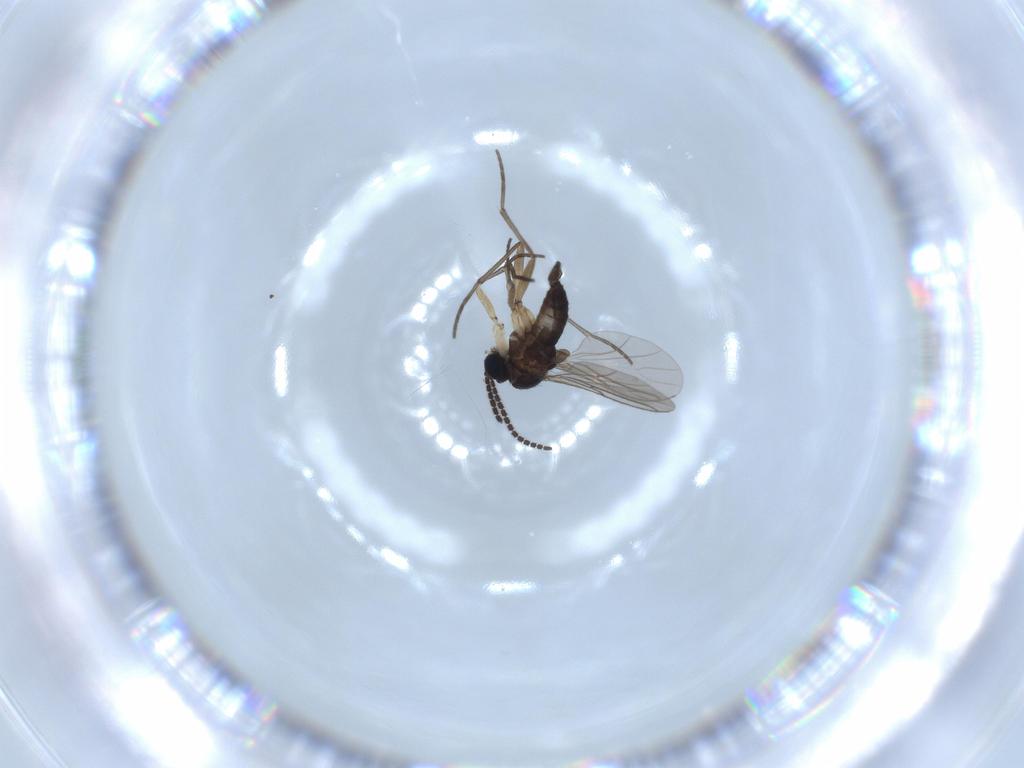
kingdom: Animalia
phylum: Arthropoda
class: Insecta
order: Diptera
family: Sciaridae
